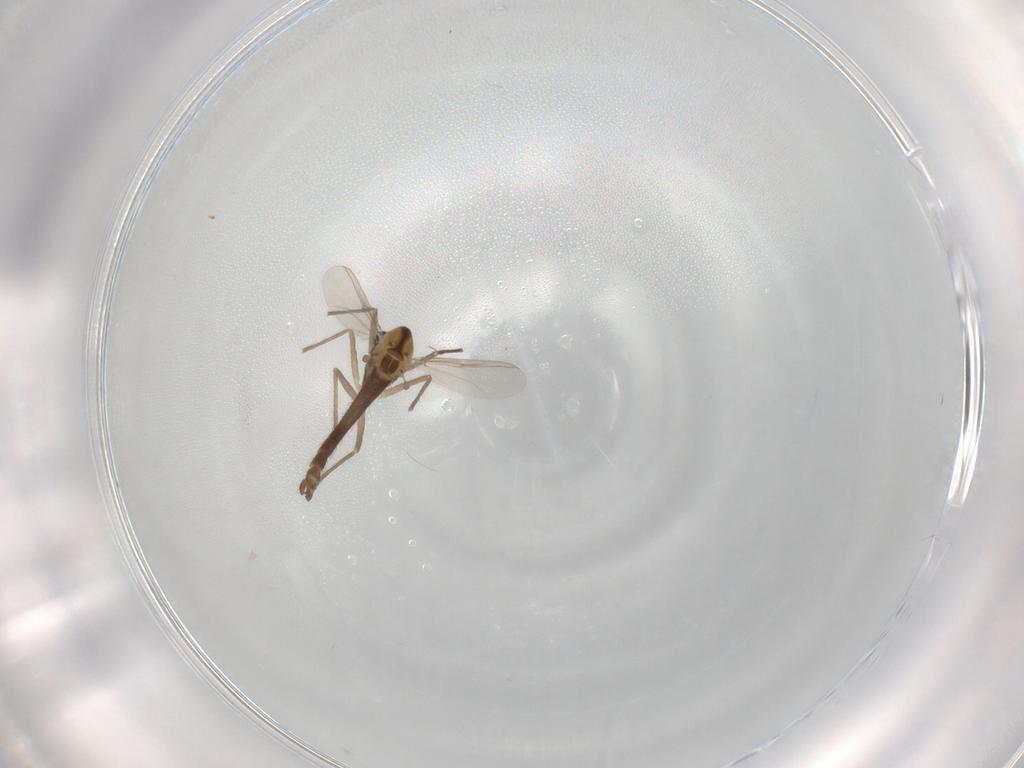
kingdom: Animalia
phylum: Arthropoda
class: Insecta
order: Diptera
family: Chironomidae
